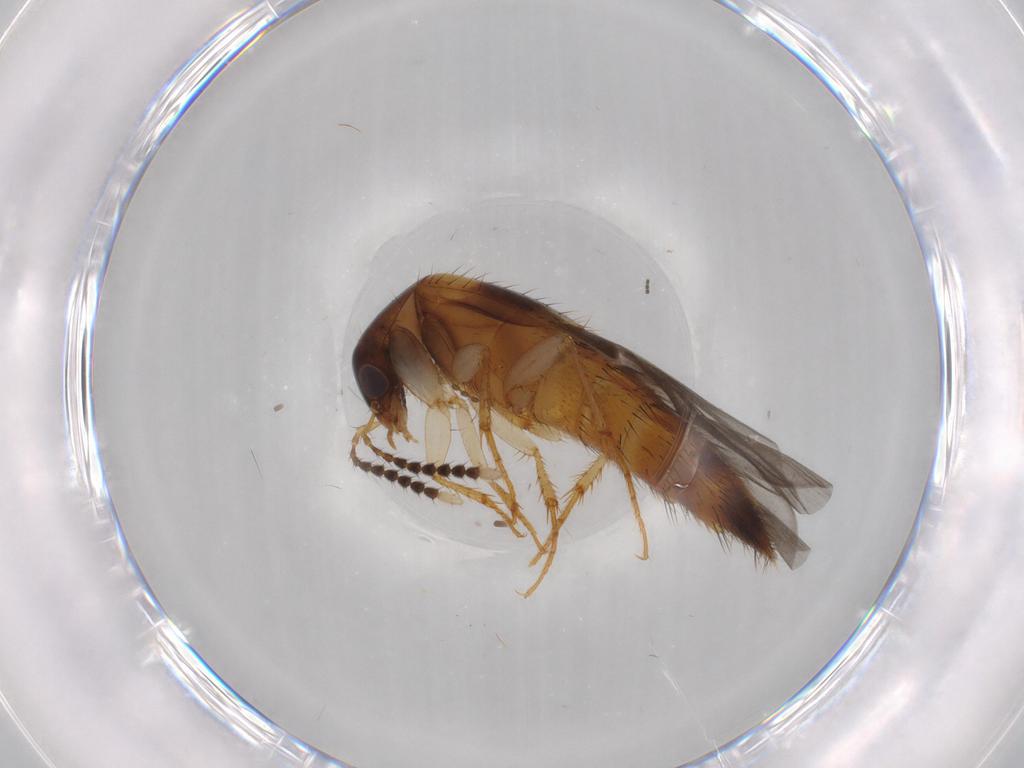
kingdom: Animalia
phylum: Arthropoda
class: Insecta
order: Coleoptera
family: Staphylinidae
